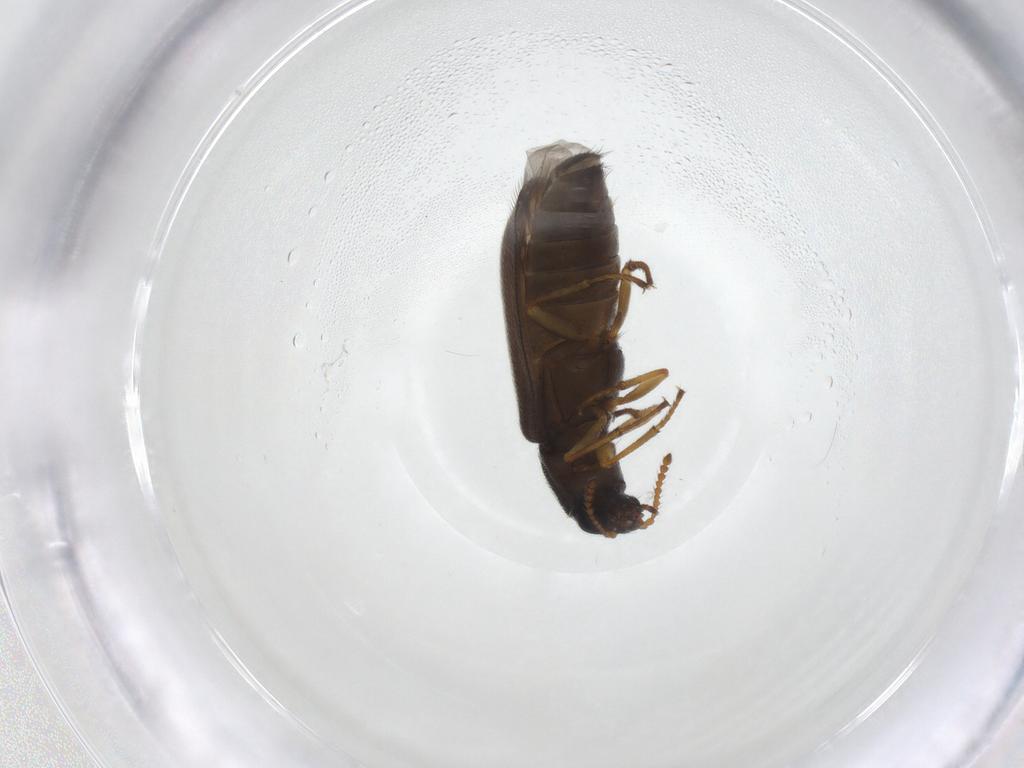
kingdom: Animalia
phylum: Arthropoda
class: Insecta
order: Coleoptera
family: Melyridae
